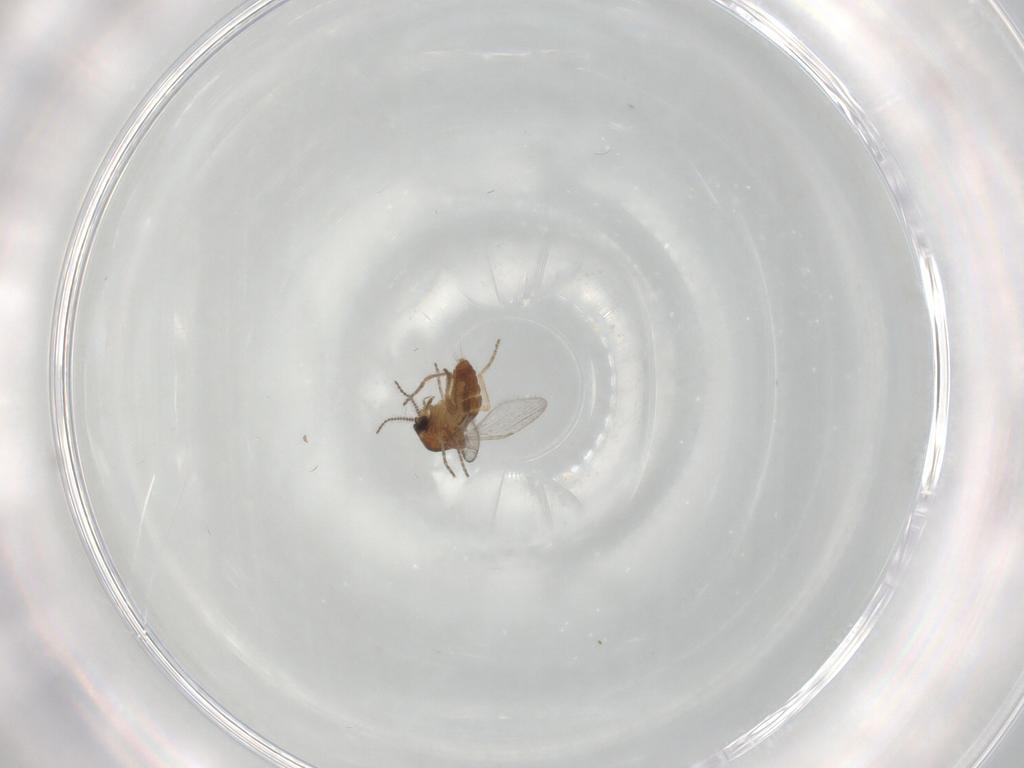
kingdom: Animalia
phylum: Arthropoda
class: Insecta
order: Diptera
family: Ceratopogonidae
